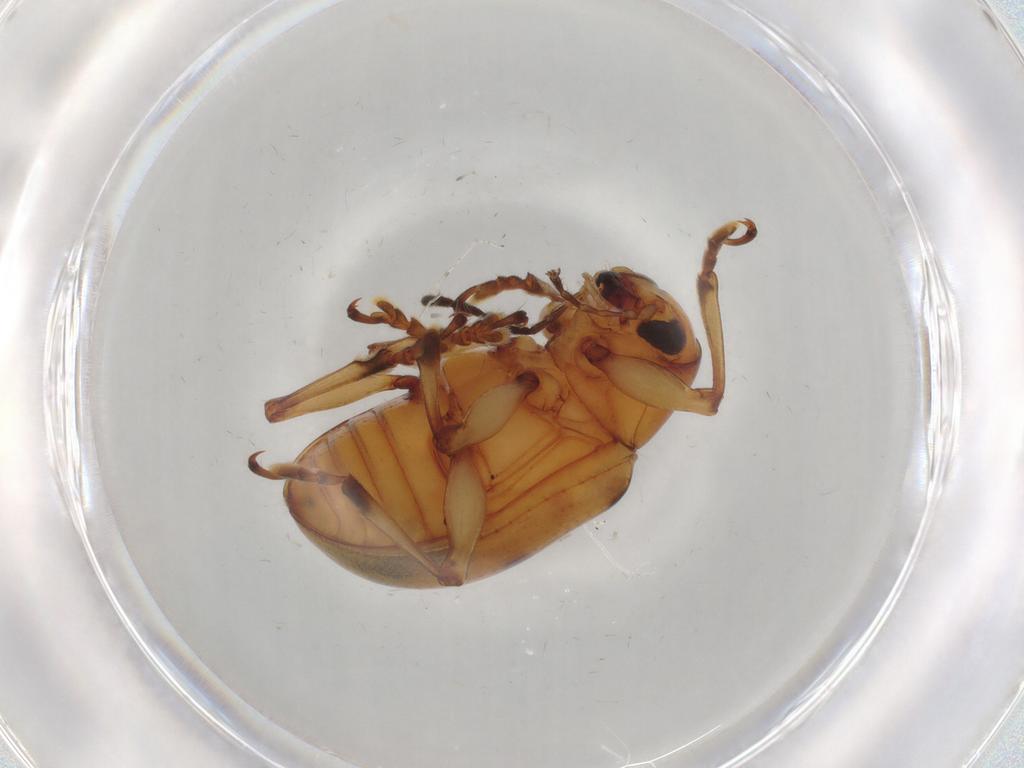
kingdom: Animalia
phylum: Arthropoda
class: Insecta
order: Coleoptera
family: Chrysomelidae
